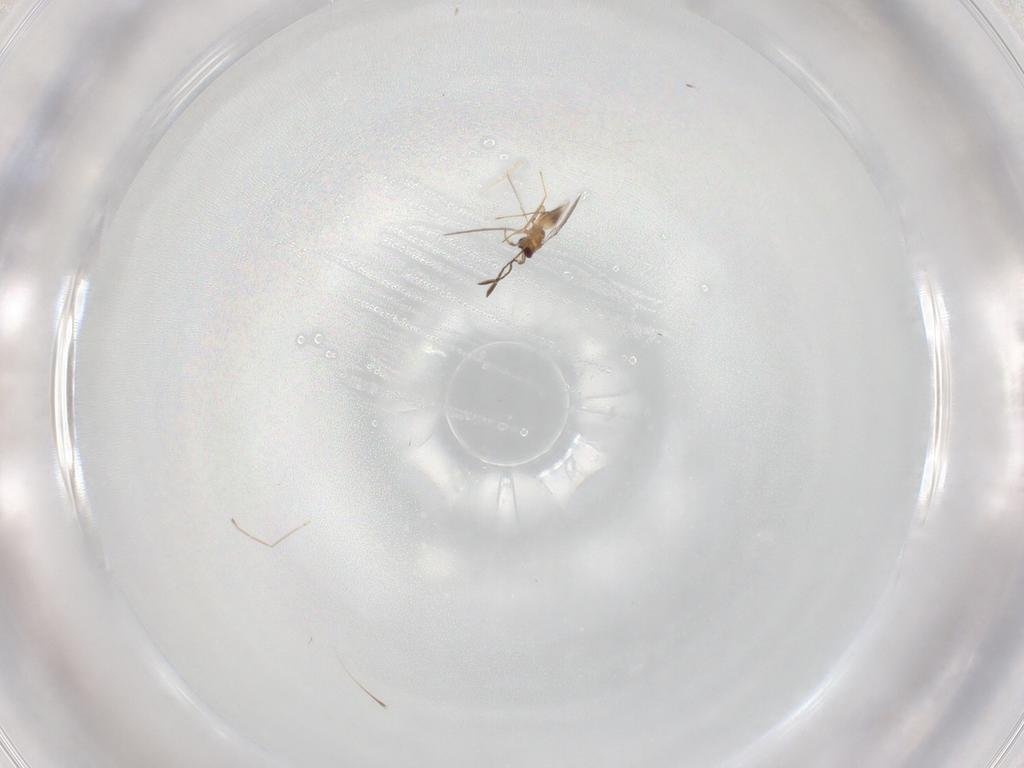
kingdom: Animalia
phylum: Arthropoda
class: Insecta
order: Hymenoptera
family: Mymaridae
